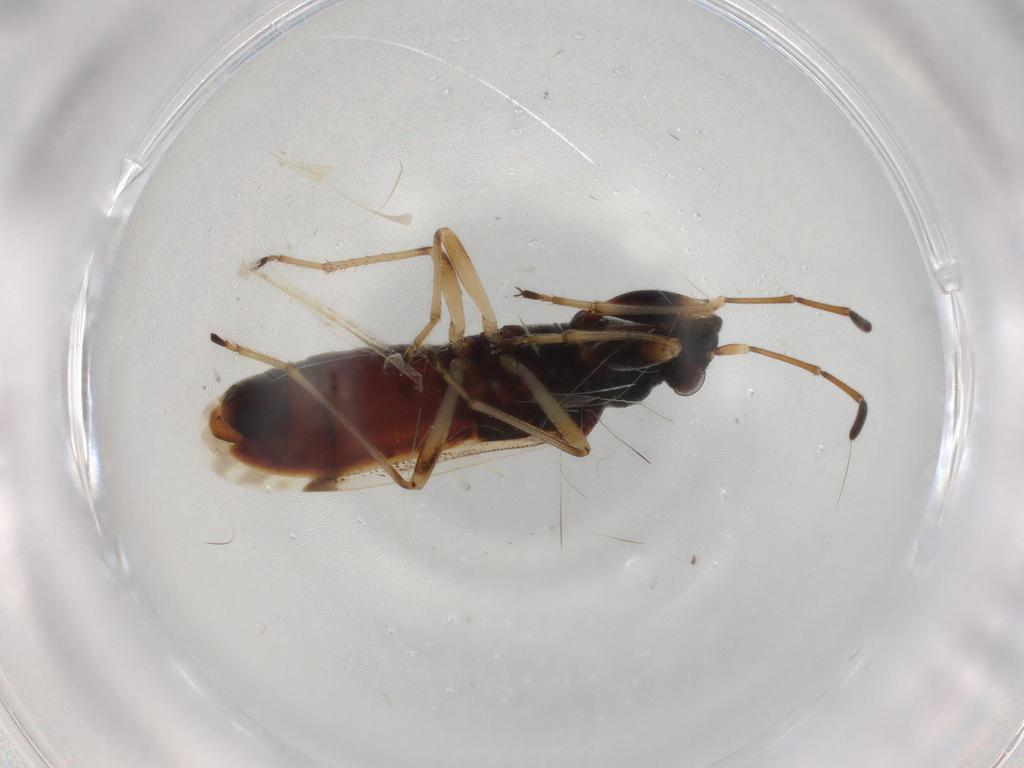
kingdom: Animalia
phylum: Arthropoda
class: Insecta
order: Hemiptera
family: Rhyparochromidae
